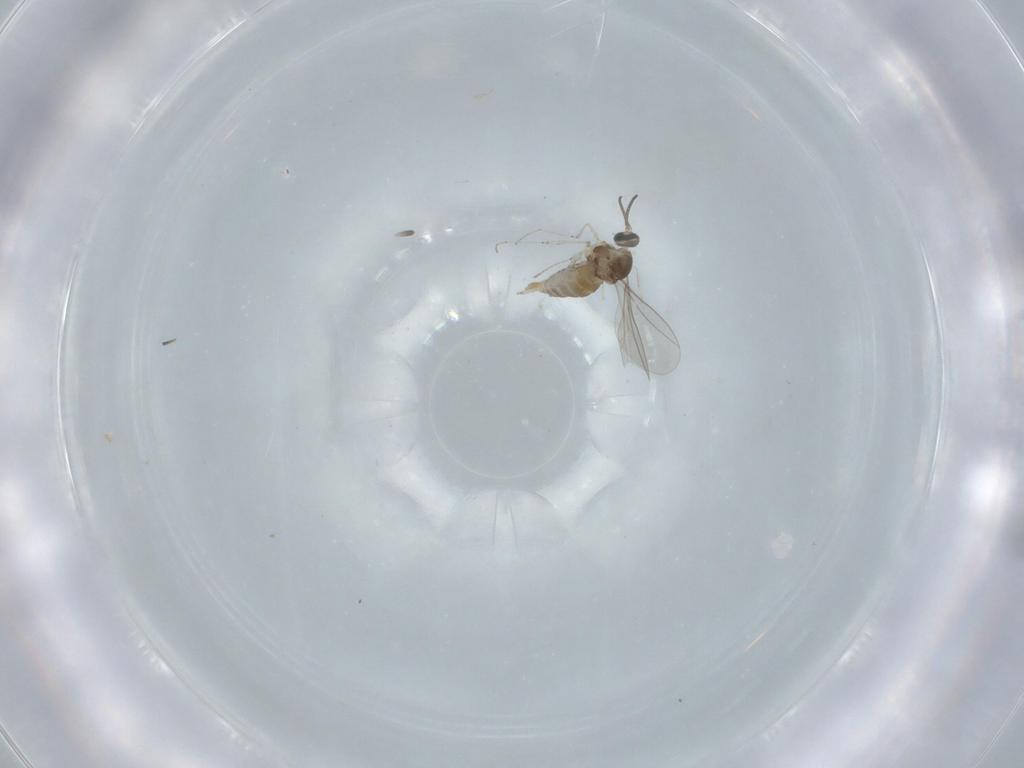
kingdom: Animalia
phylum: Arthropoda
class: Insecta
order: Diptera
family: Cecidomyiidae
